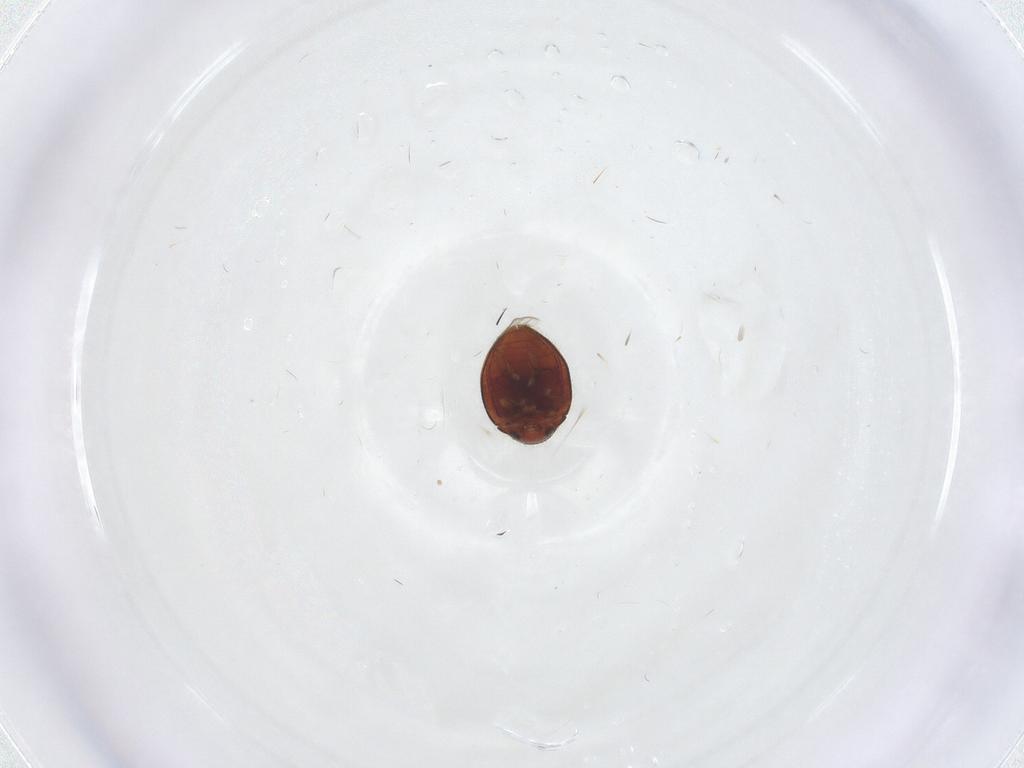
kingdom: Animalia
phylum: Arthropoda
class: Insecta
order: Coleoptera
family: Coccinellidae
